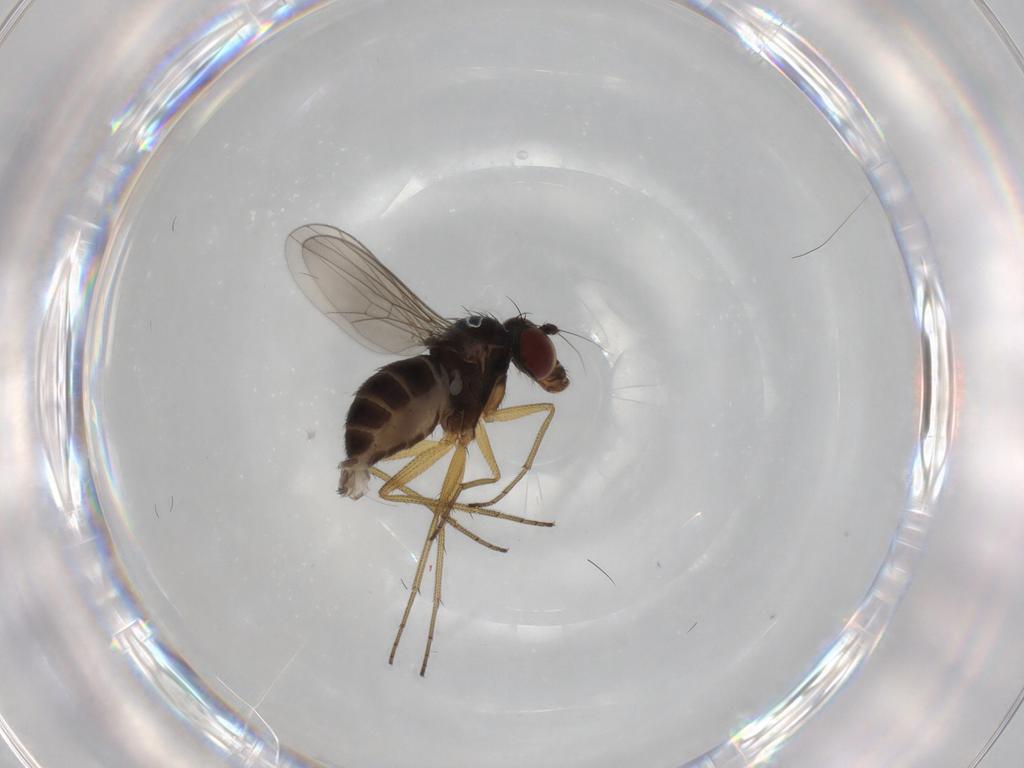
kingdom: Animalia
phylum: Arthropoda
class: Insecta
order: Diptera
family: Dolichopodidae
